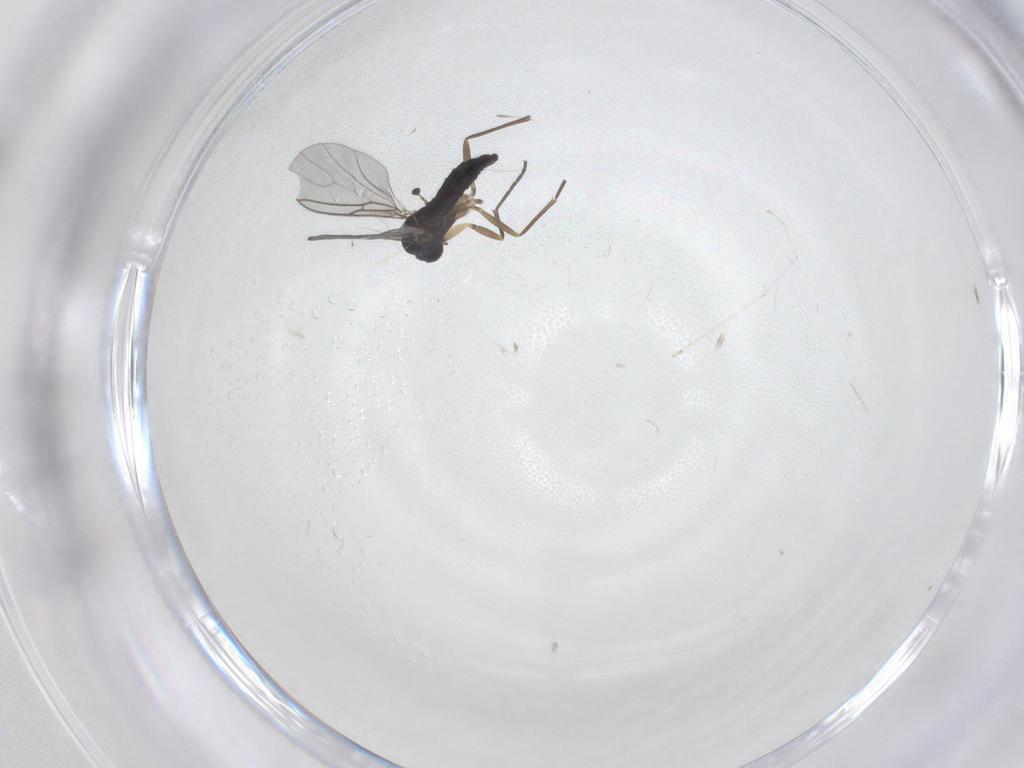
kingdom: Animalia
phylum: Arthropoda
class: Insecta
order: Diptera
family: Sciaridae
